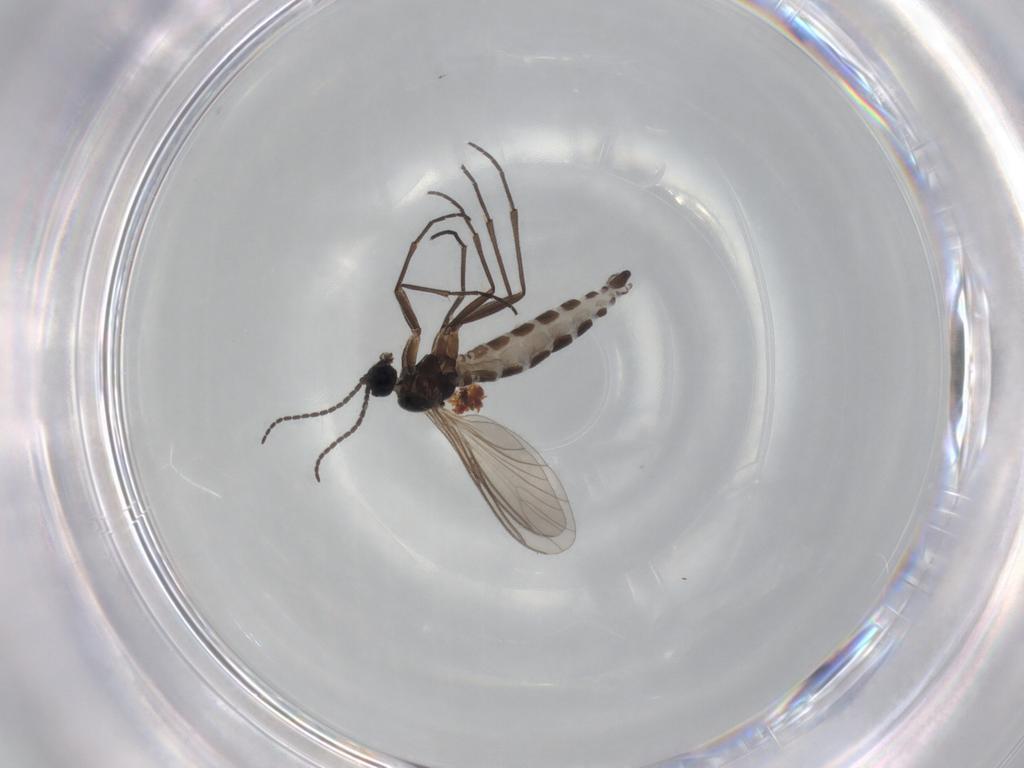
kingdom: Animalia
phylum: Arthropoda
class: Insecta
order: Diptera
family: Sciaridae
